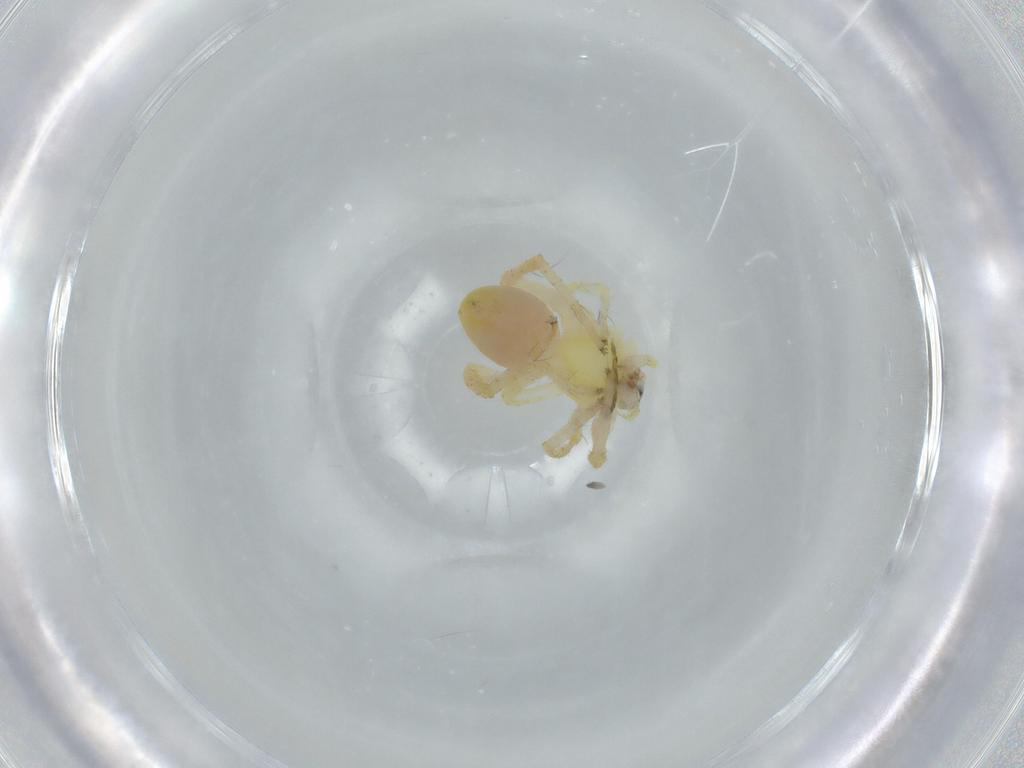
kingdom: Animalia
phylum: Arthropoda
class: Arachnida
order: Araneae
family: Anyphaenidae
